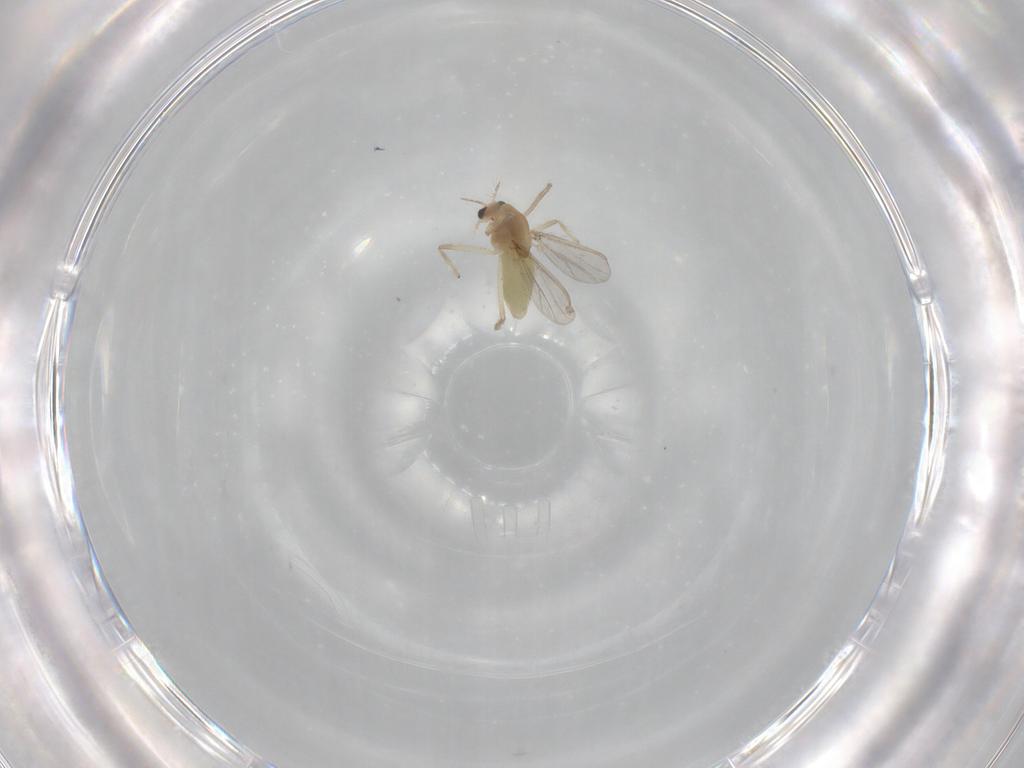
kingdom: Animalia
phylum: Arthropoda
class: Insecta
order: Diptera
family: Chironomidae
